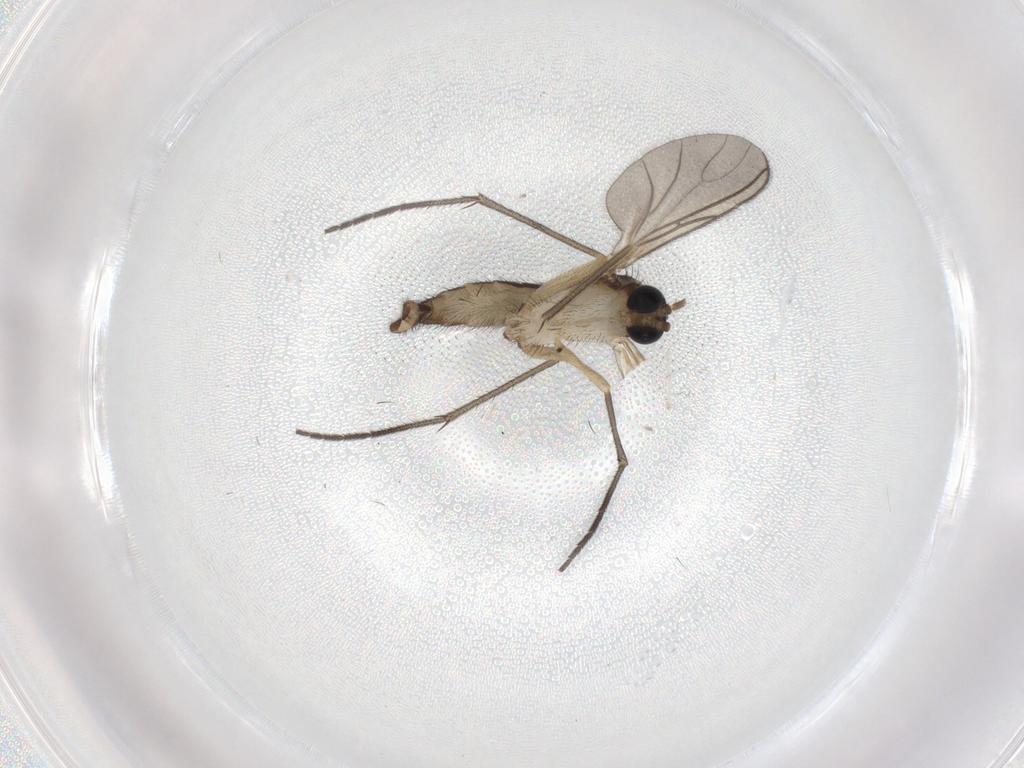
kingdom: Animalia
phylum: Arthropoda
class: Insecta
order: Diptera
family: Sciaridae
